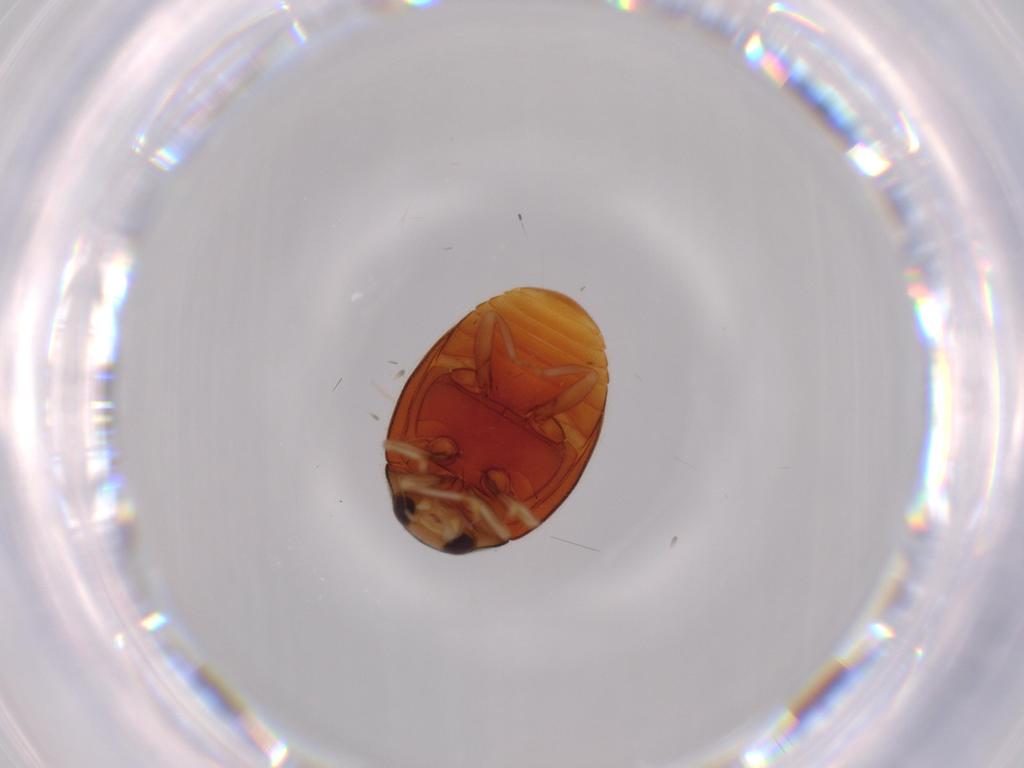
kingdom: Animalia
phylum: Arthropoda
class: Insecta
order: Coleoptera
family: Coccinellidae
